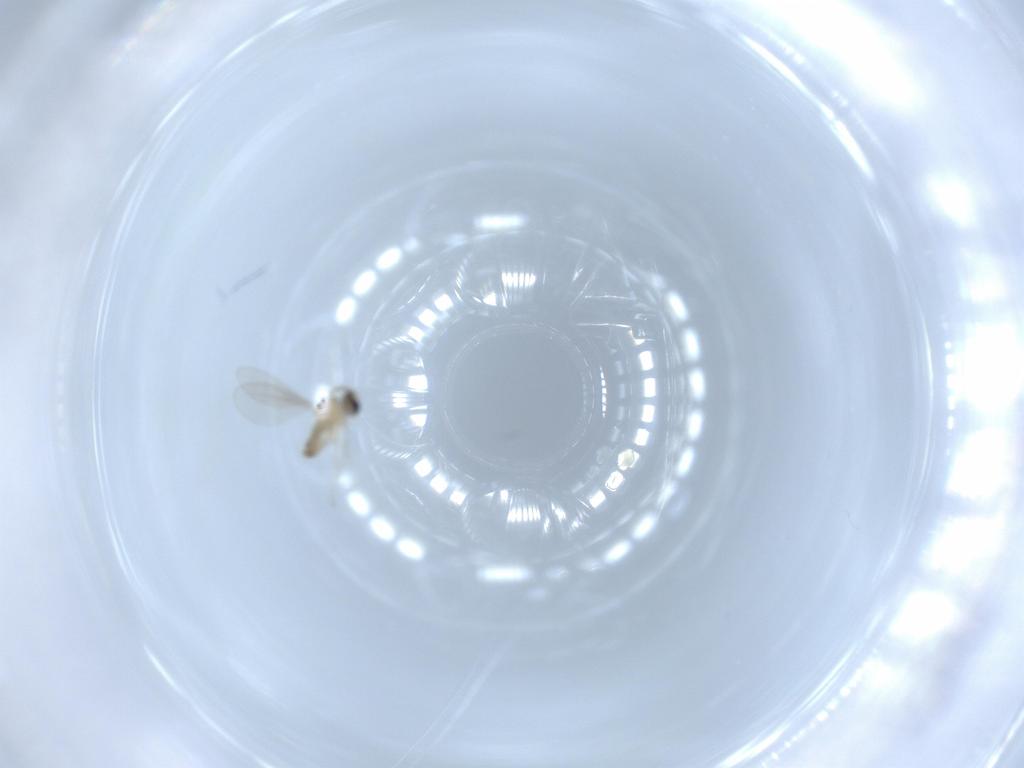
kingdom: Animalia
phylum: Arthropoda
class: Insecta
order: Diptera
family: Cecidomyiidae
